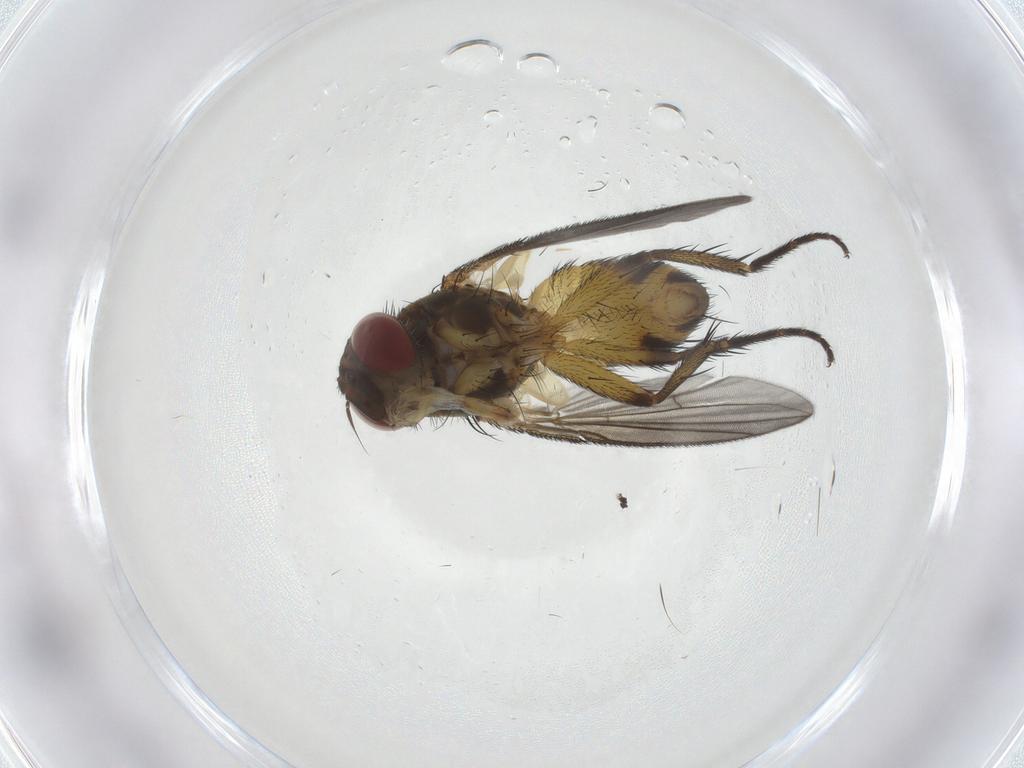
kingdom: Animalia
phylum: Arthropoda
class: Insecta
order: Diptera
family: Tachinidae
